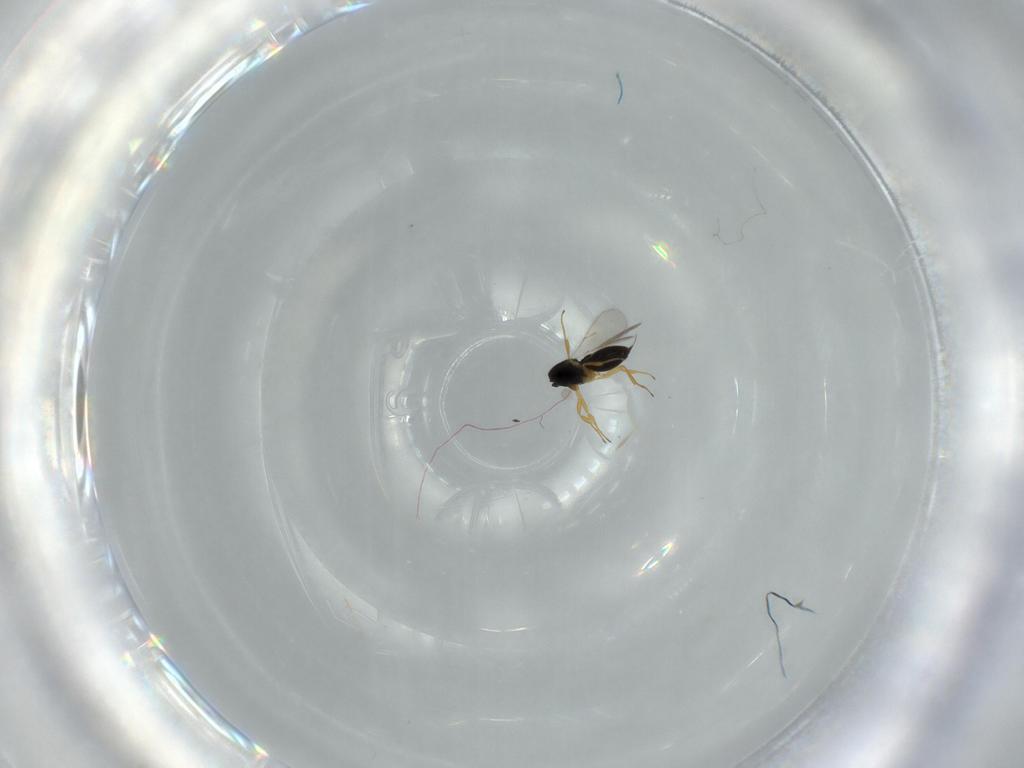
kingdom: Animalia
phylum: Arthropoda
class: Insecta
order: Hymenoptera
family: Scelionidae
